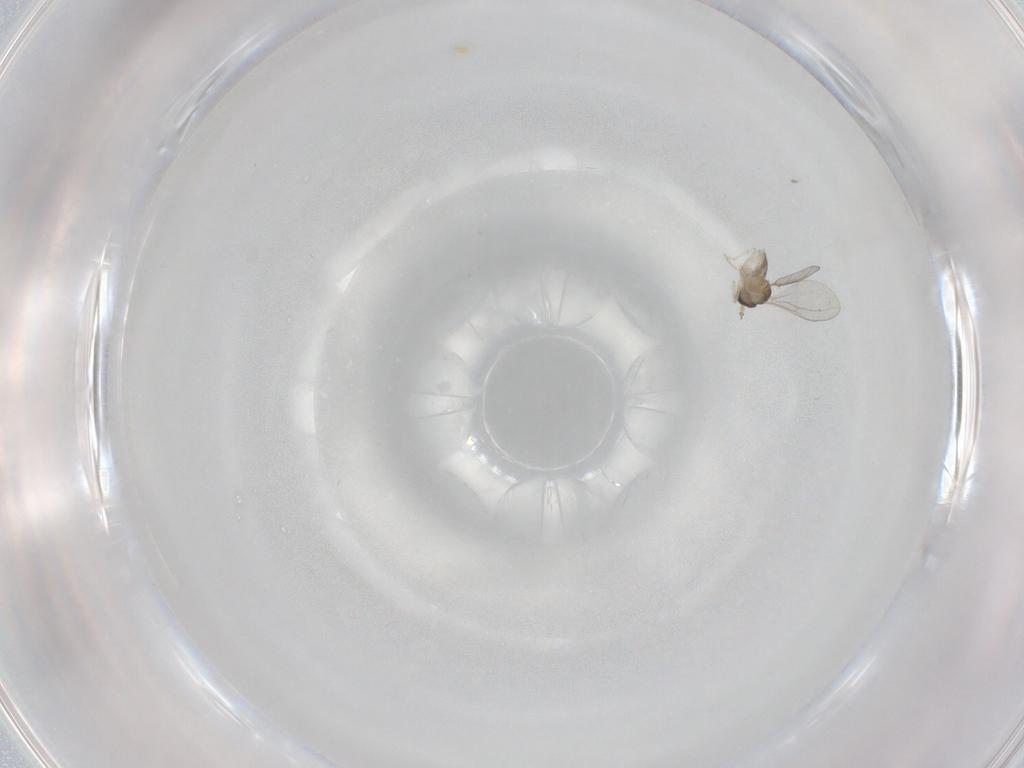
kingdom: Animalia
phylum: Arthropoda
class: Insecta
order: Diptera
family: Cecidomyiidae
